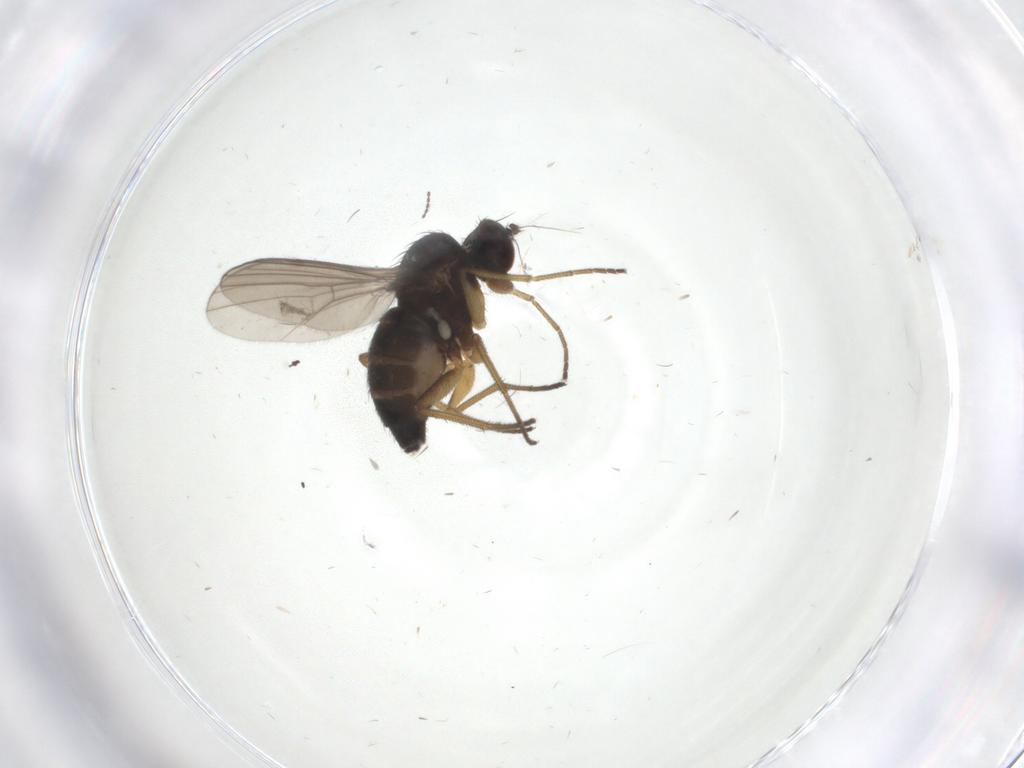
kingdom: Animalia
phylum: Arthropoda
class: Insecta
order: Diptera
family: Dolichopodidae
